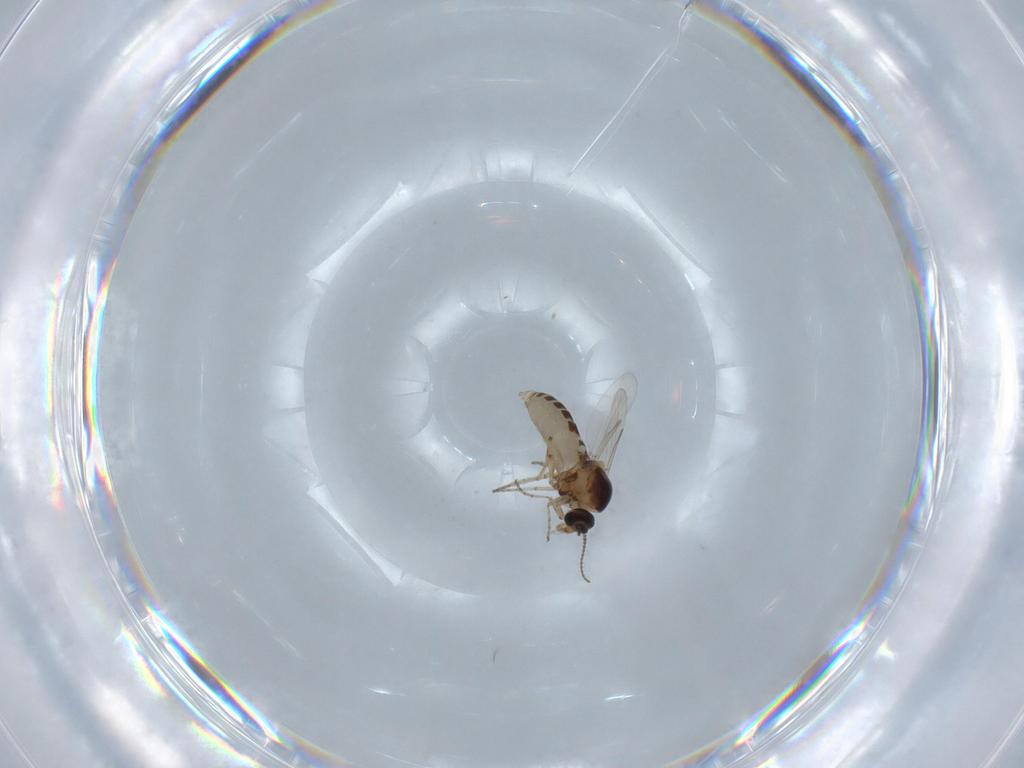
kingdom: Animalia
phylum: Arthropoda
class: Insecta
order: Diptera
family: Ceratopogonidae
